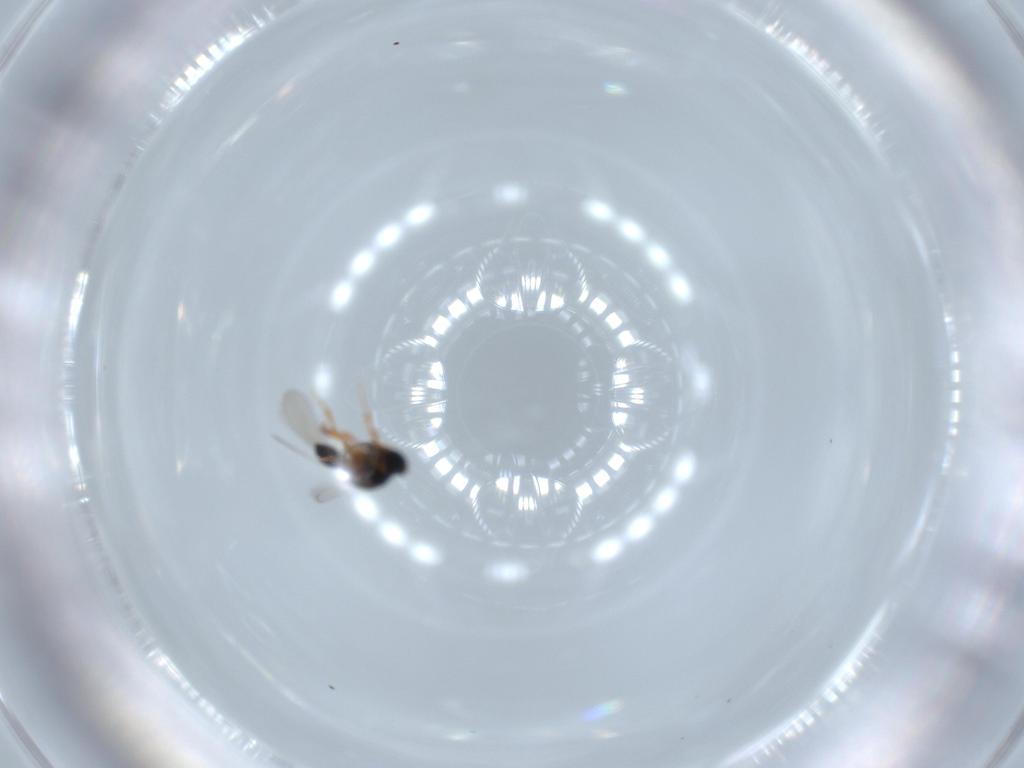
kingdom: Animalia
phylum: Arthropoda
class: Insecta
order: Hymenoptera
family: Platygastridae
